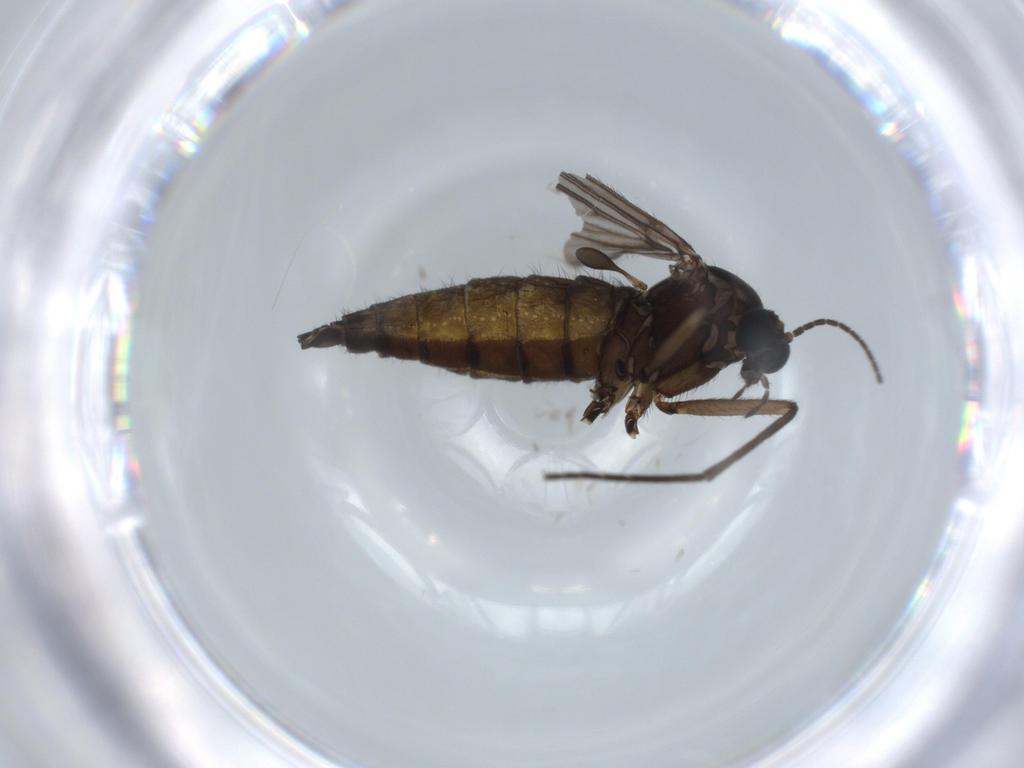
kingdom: Animalia
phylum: Arthropoda
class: Insecta
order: Diptera
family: Sciaridae
